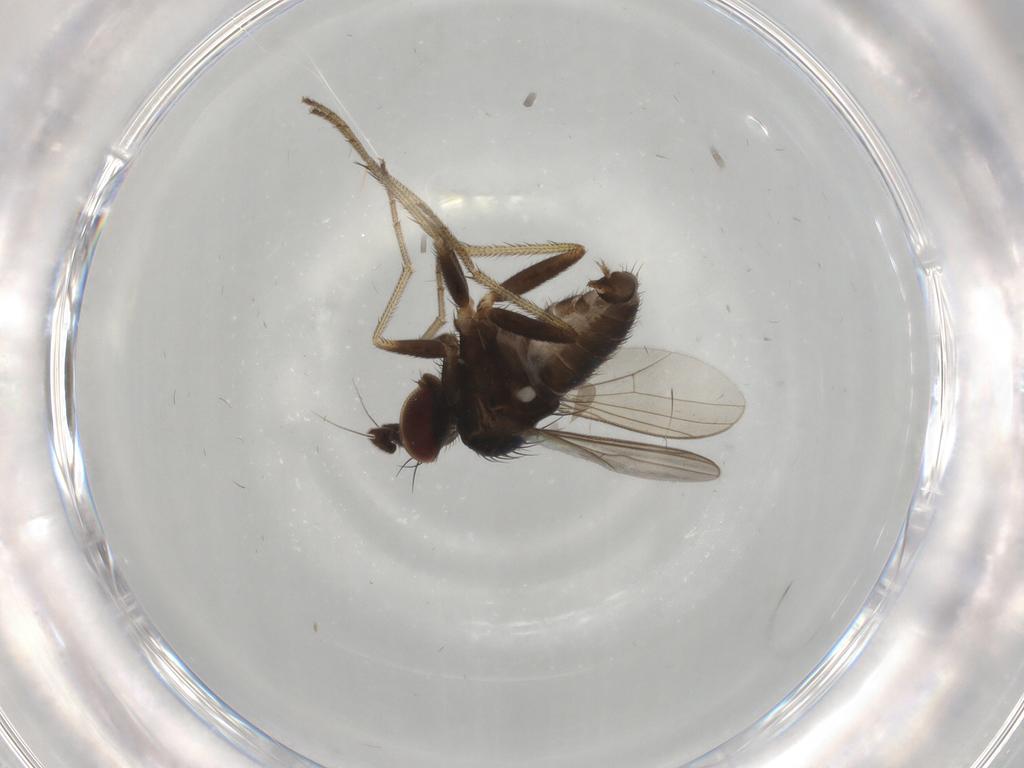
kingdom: Animalia
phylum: Arthropoda
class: Insecta
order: Diptera
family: Dolichopodidae
